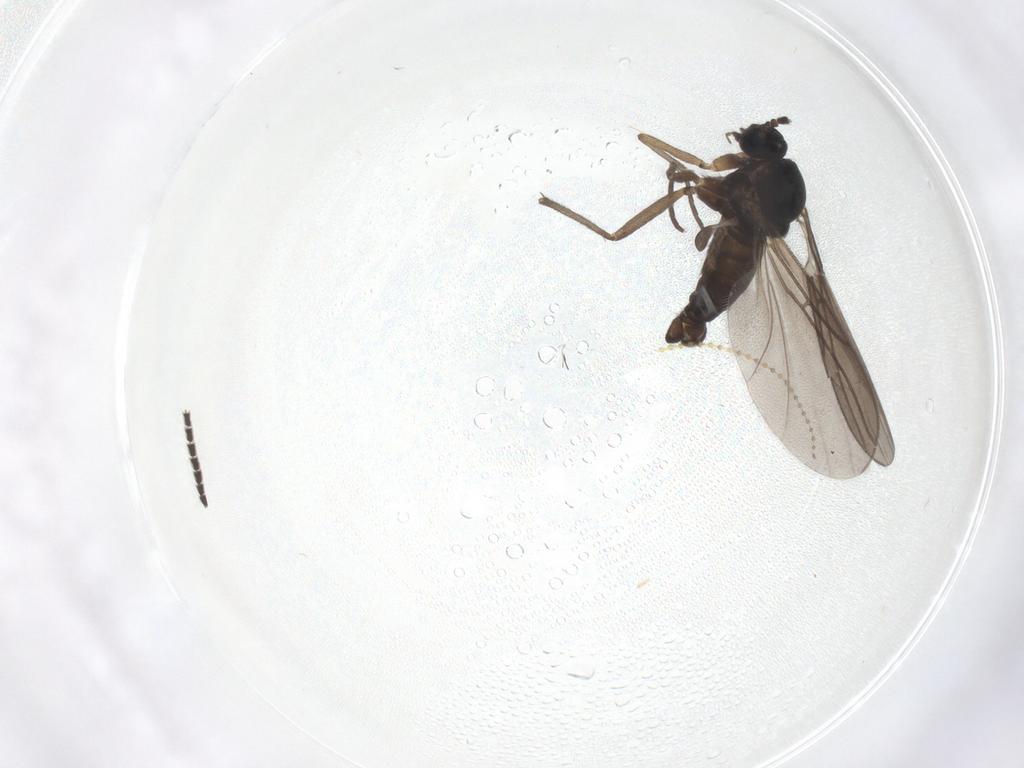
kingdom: Animalia
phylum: Arthropoda
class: Insecta
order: Diptera
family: Sciaridae
